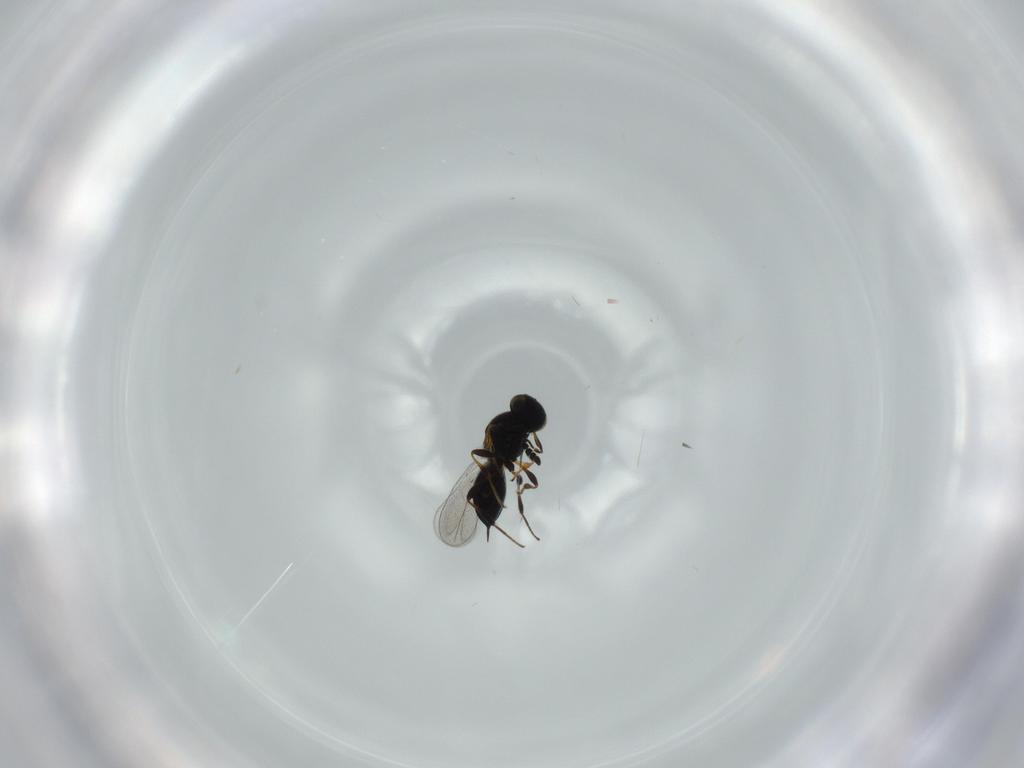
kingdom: Animalia
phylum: Arthropoda
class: Insecta
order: Hymenoptera
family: Platygastridae
